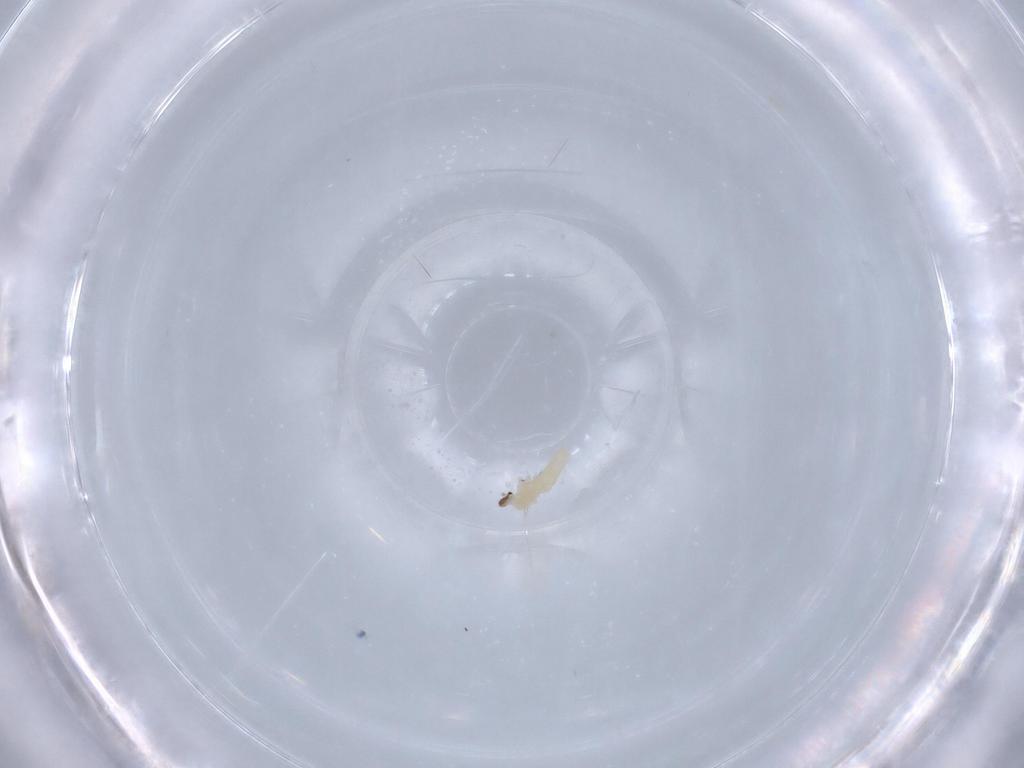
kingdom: Animalia
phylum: Arthropoda
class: Insecta
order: Diptera
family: Cecidomyiidae
